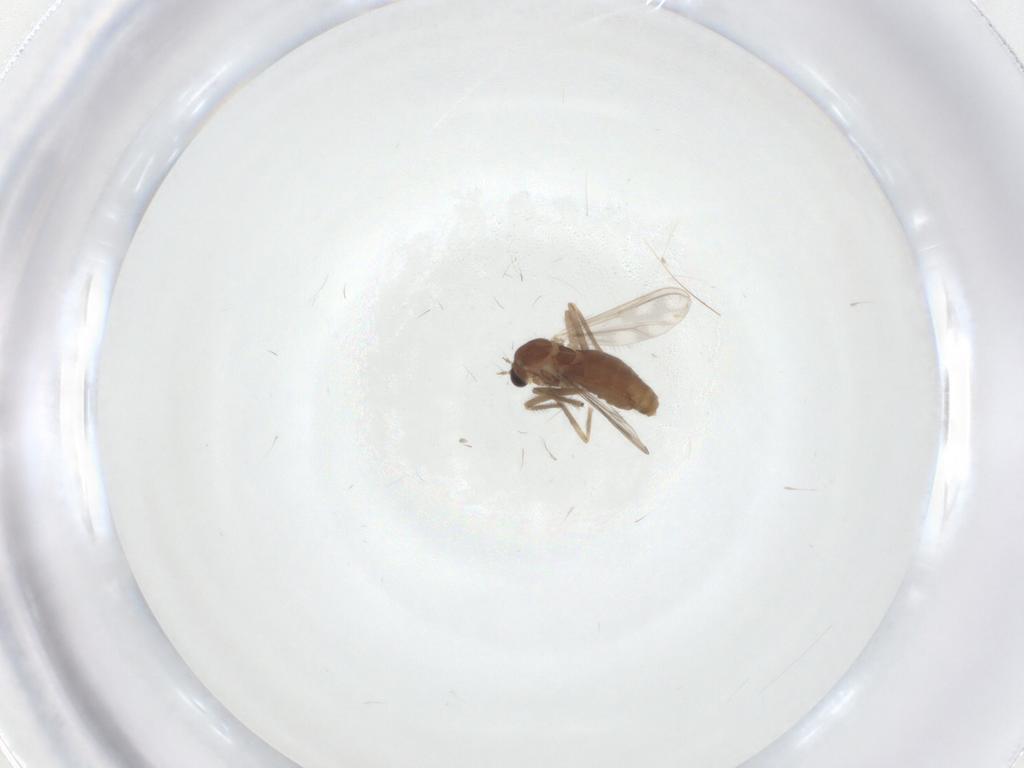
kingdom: Animalia
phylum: Arthropoda
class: Insecta
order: Diptera
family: Chironomidae
